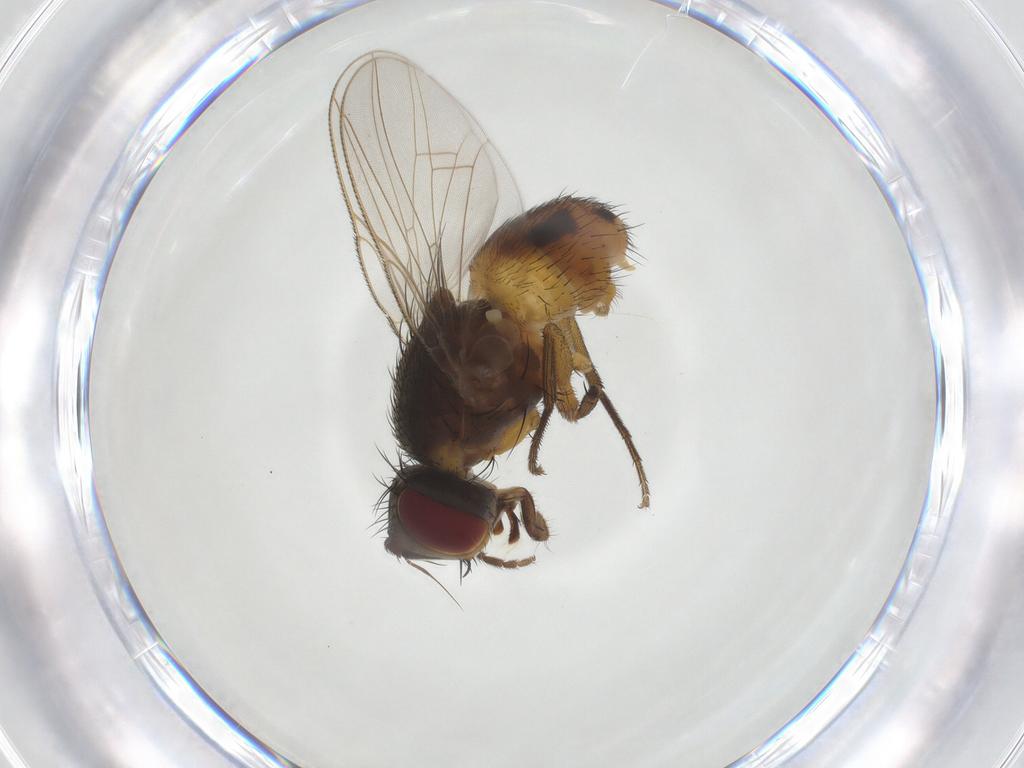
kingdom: Animalia
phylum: Arthropoda
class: Insecta
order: Diptera
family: Muscidae
